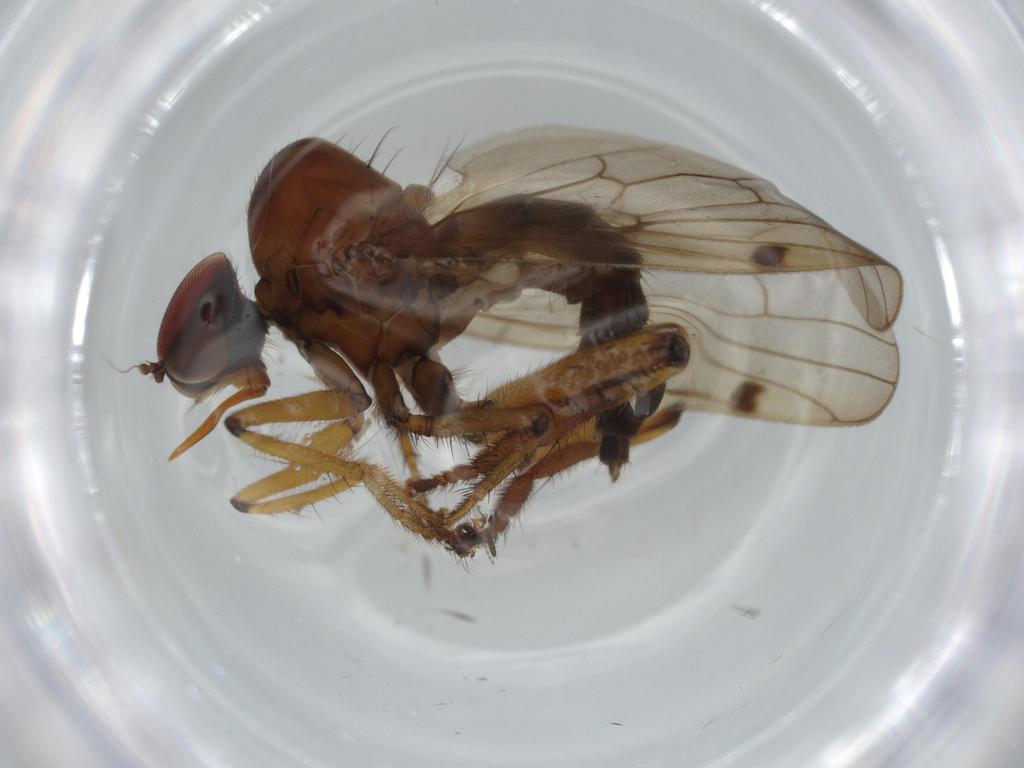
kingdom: Animalia
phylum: Arthropoda
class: Insecta
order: Diptera
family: Hybotidae
